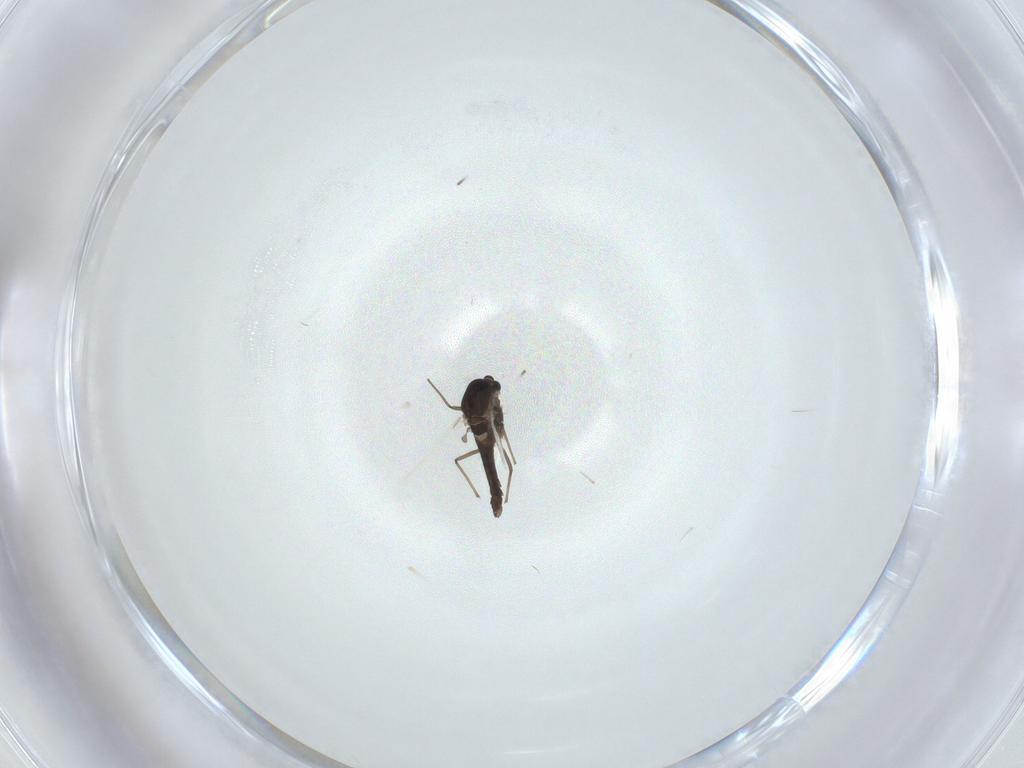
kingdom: Animalia
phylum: Arthropoda
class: Insecta
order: Diptera
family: Chironomidae
